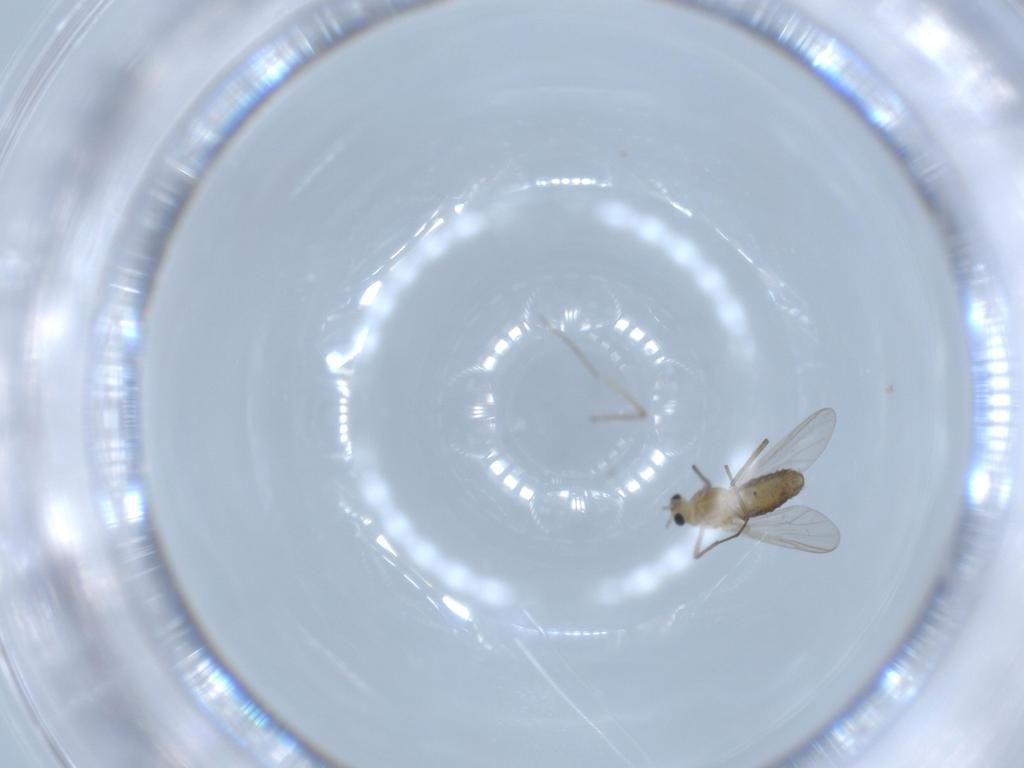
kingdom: Animalia
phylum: Arthropoda
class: Insecta
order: Diptera
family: Chironomidae
